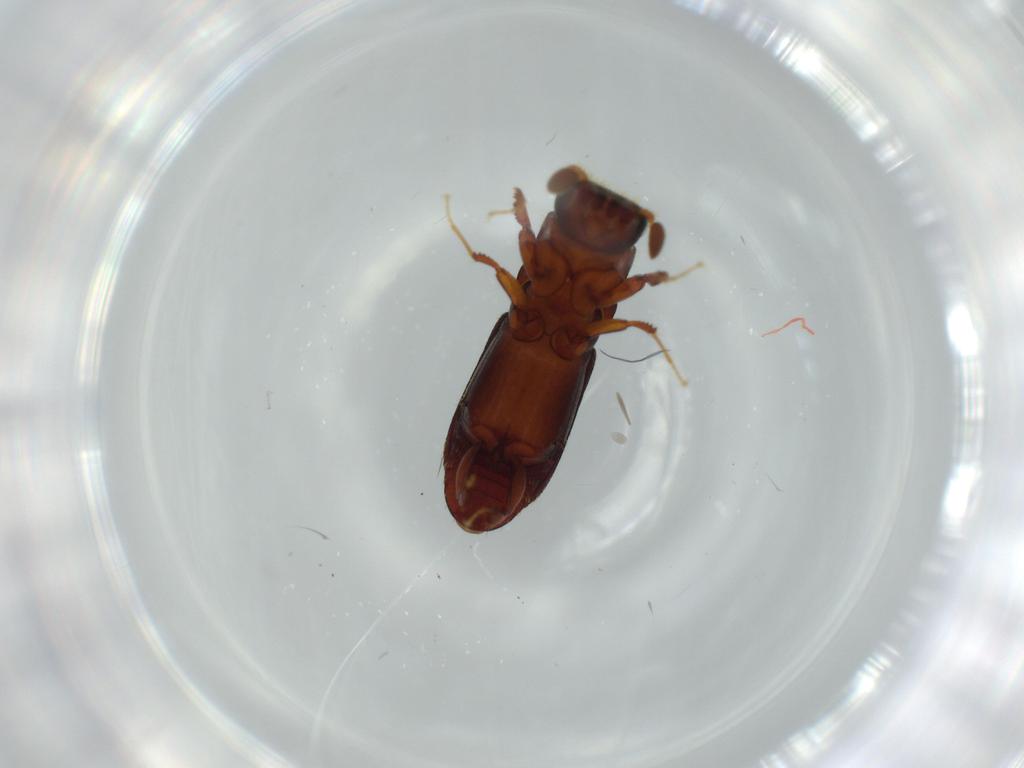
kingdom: Animalia
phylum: Arthropoda
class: Insecta
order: Coleoptera
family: Curculionidae
